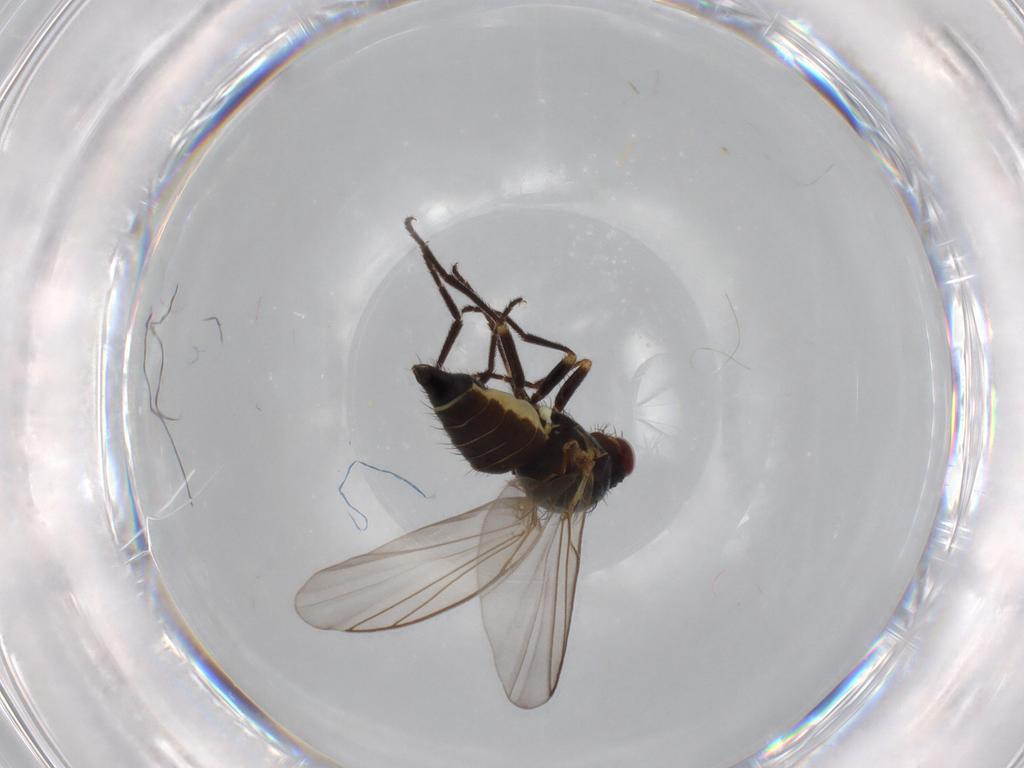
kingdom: Animalia
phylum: Arthropoda
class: Insecta
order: Diptera
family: Agromyzidae
